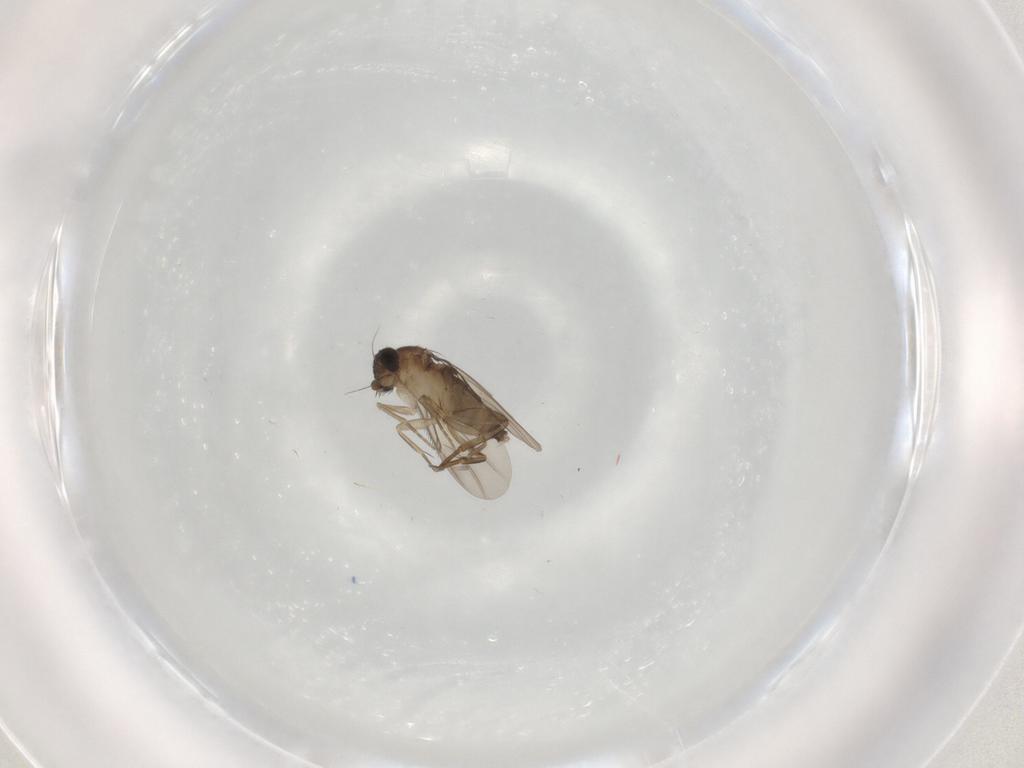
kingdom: Animalia
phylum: Arthropoda
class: Insecta
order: Diptera
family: Phoridae
